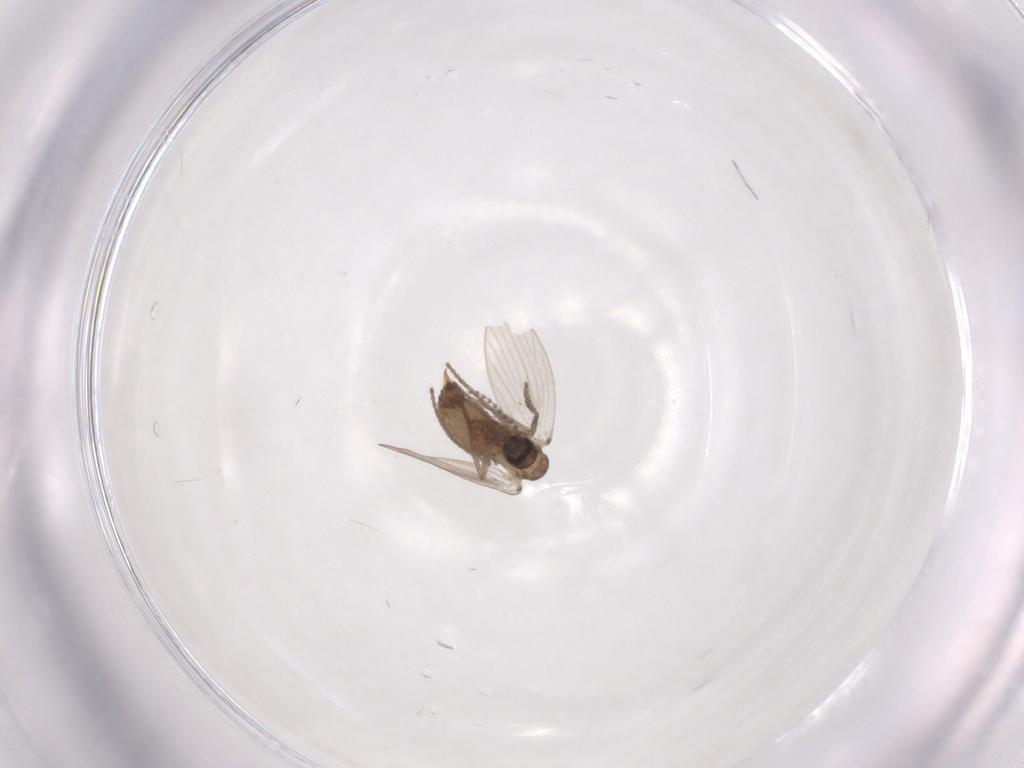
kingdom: Animalia
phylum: Arthropoda
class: Insecta
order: Diptera
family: Psychodidae
